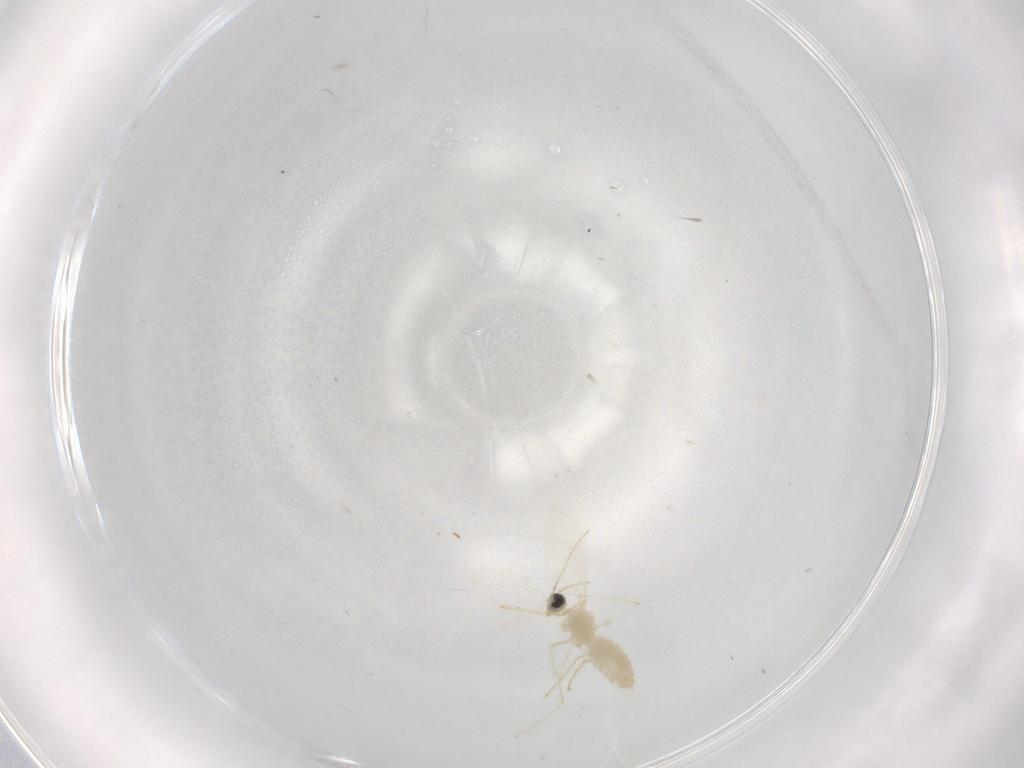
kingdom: Animalia
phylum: Arthropoda
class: Insecta
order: Diptera
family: Cecidomyiidae
